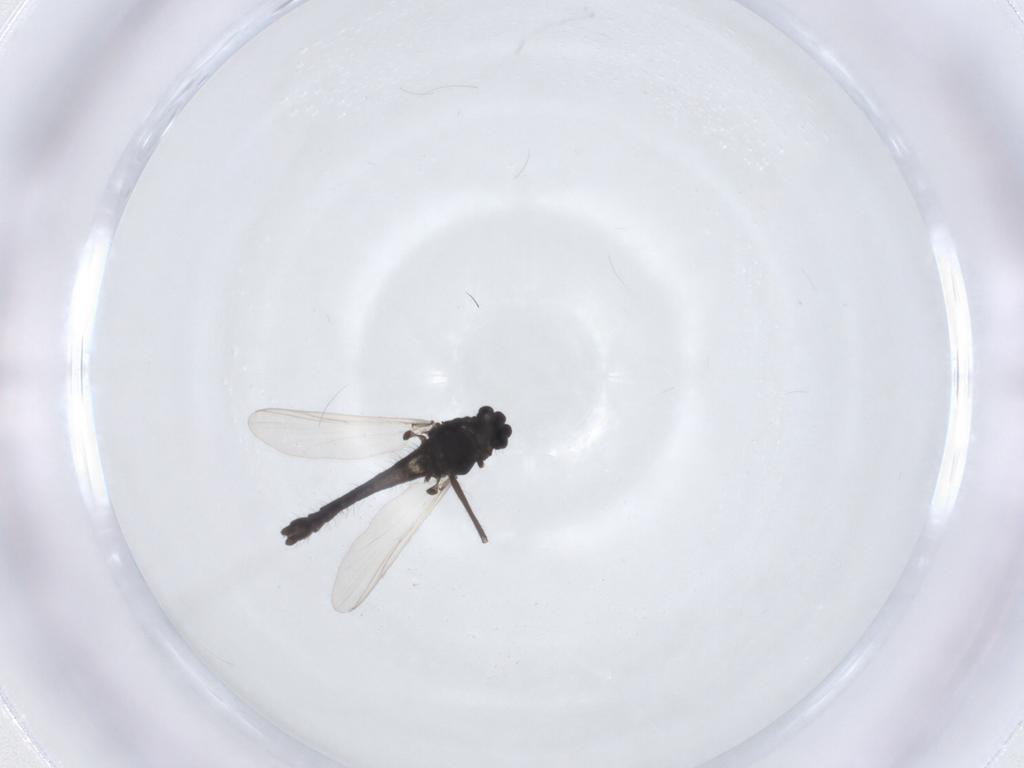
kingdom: Animalia
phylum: Arthropoda
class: Insecta
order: Diptera
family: Chironomidae
